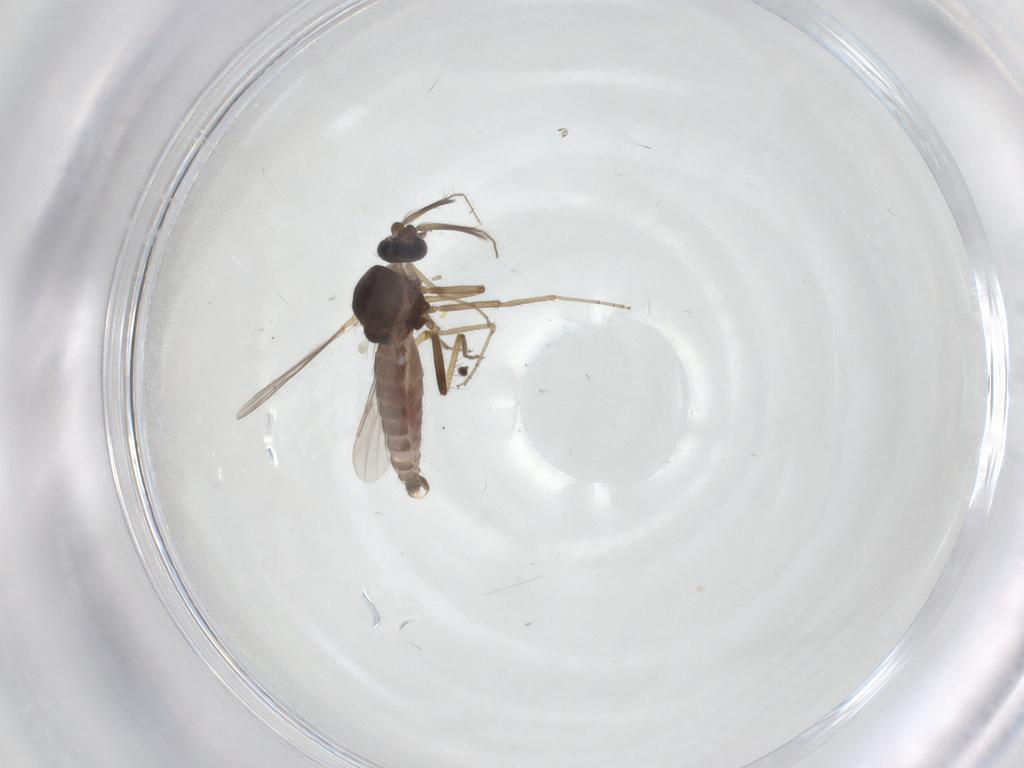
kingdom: Animalia
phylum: Arthropoda
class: Insecta
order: Diptera
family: Ceratopogonidae
